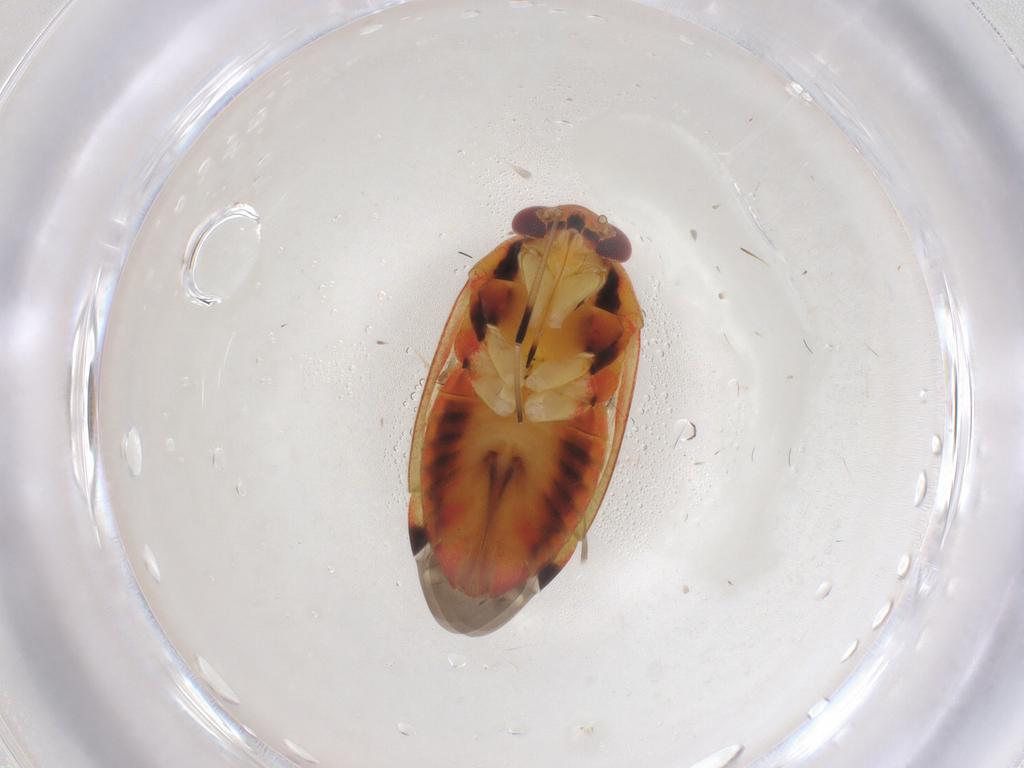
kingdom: Animalia
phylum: Arthropoda
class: Insecta
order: Hemiptera
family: Miridae
